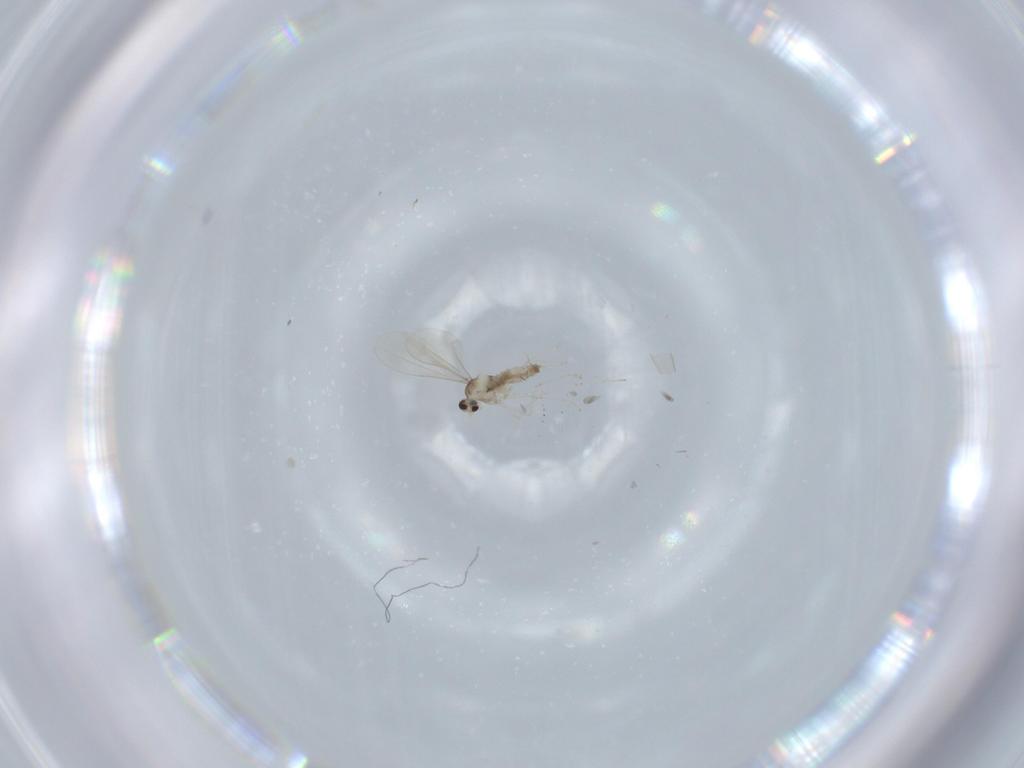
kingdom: Animalia
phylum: Arthropoda
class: Insecta
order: Diptera
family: Cecidomyiidae
